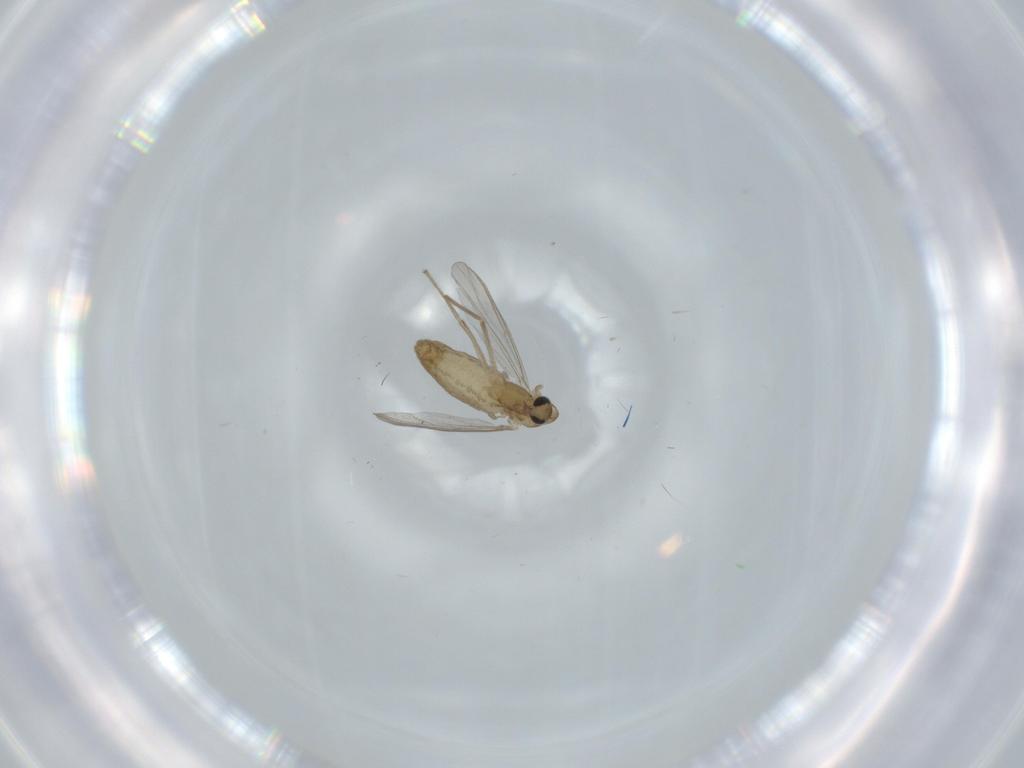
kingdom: Animalia
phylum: Arthropoda
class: Insecta
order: Diptera
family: Chironomidae
